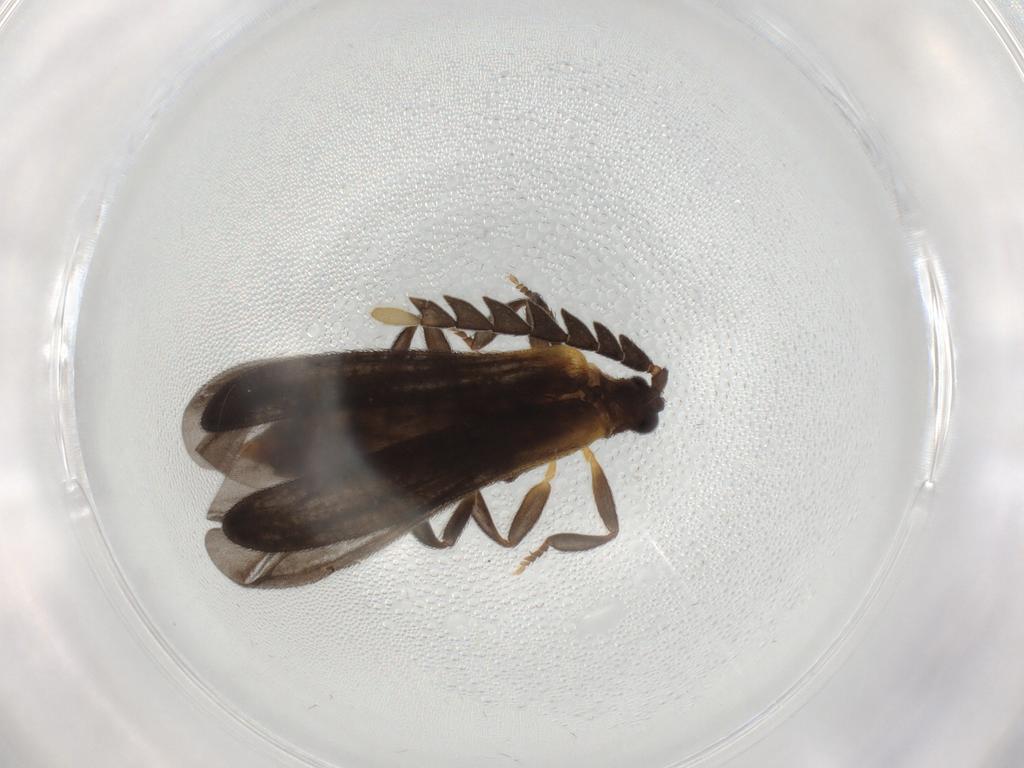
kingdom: Animalia
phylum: Arthropoda
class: Insecta
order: Coleoptera
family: Lycidae
